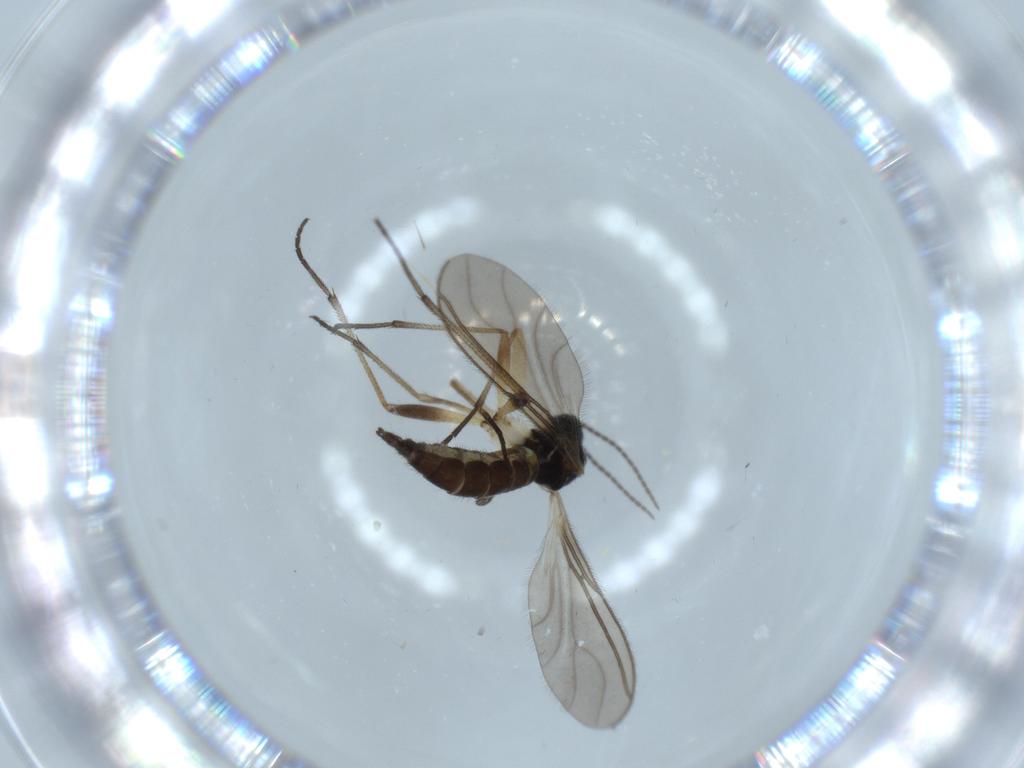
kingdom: Animalia
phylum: Arthropoda
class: Insecta
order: Diptera
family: Sciaridae
